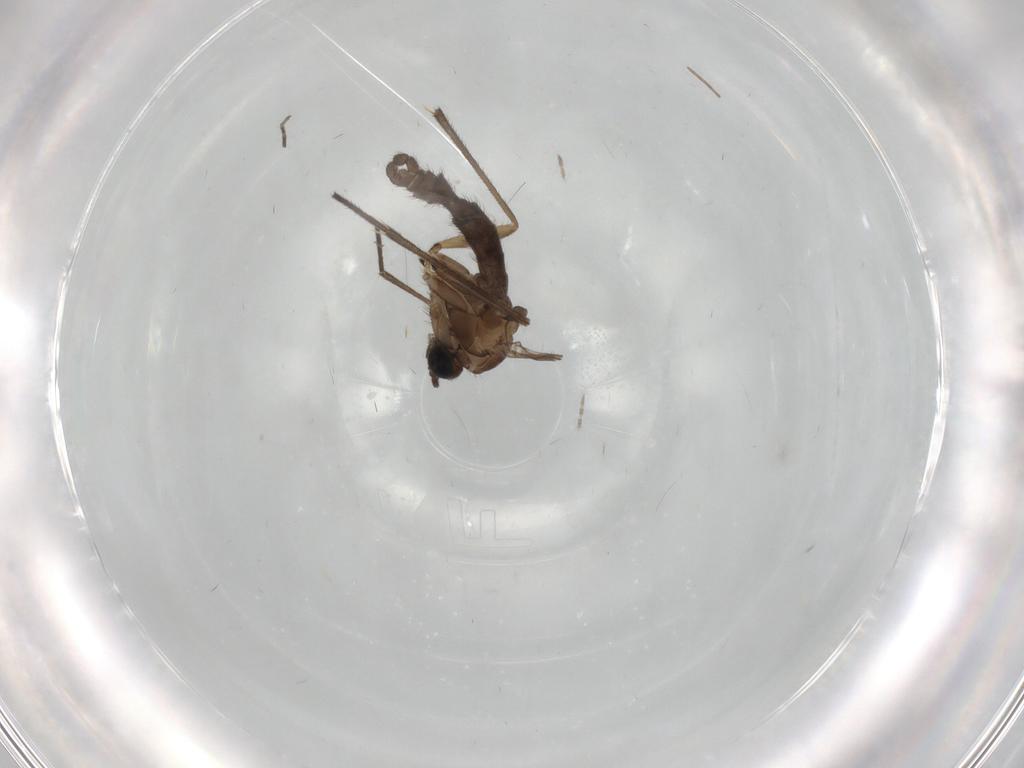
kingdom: Animalia
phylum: Arthropoda
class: Insecta
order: Diptera
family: Sciaridae
